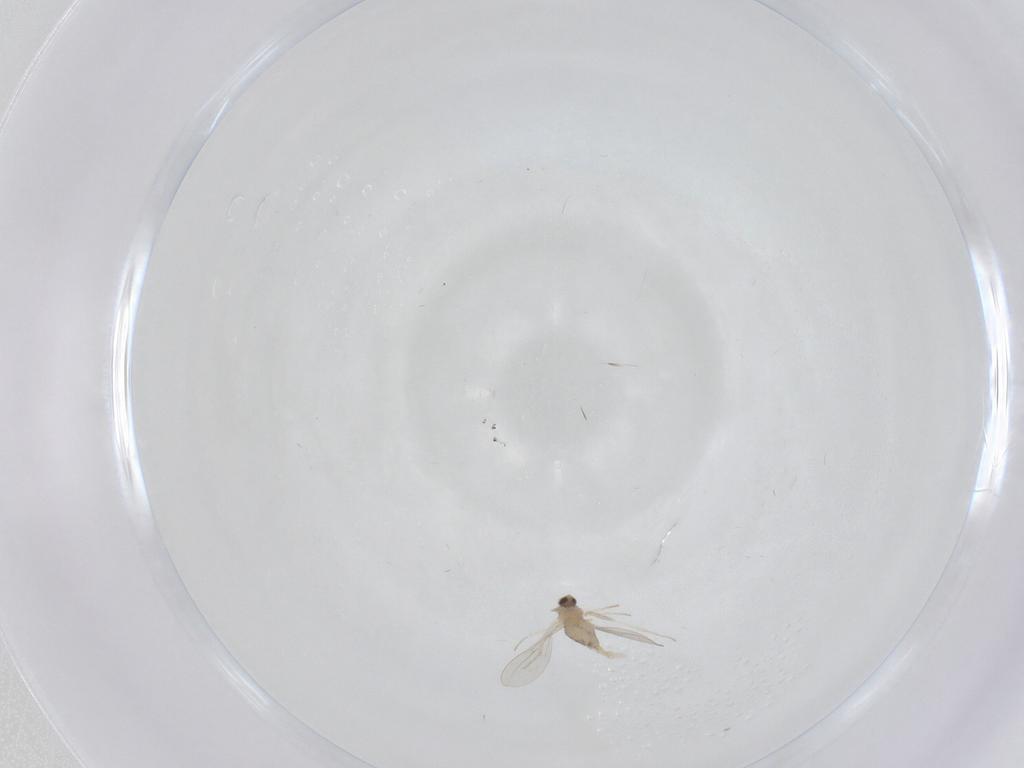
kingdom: Animalia
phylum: Arthropoda
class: Insecta
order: Diptera
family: Cecidomyiidae
